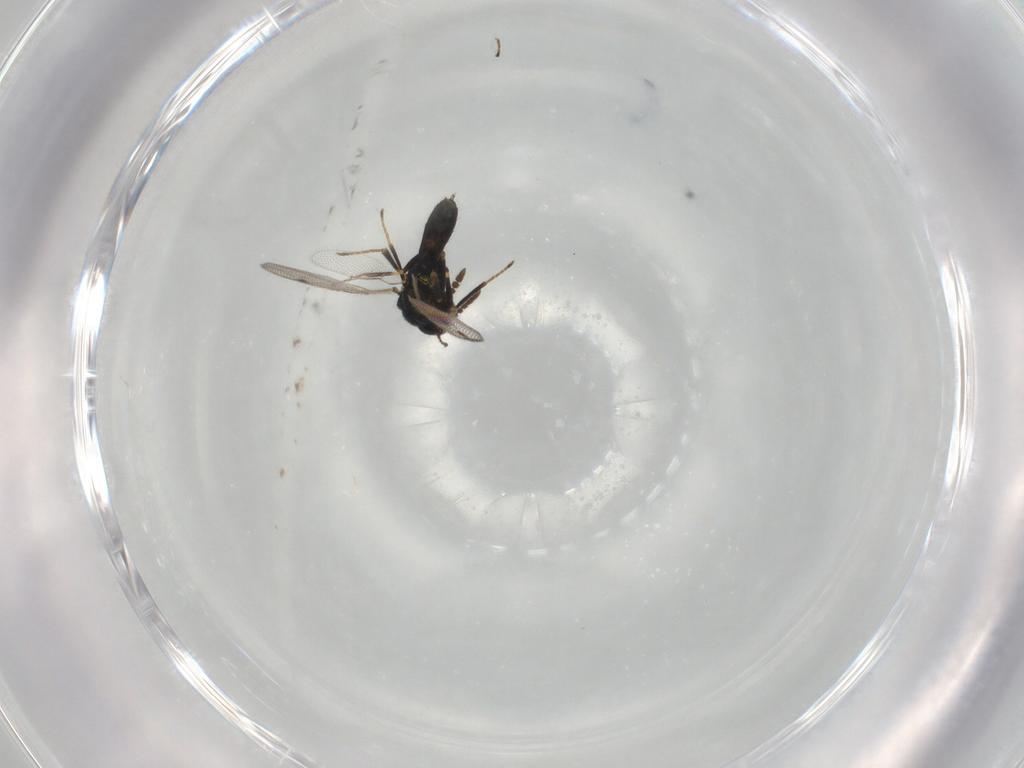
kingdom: Animalia
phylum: Arthropoda
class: Insecta
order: Hymenoptera
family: Pirenidae
